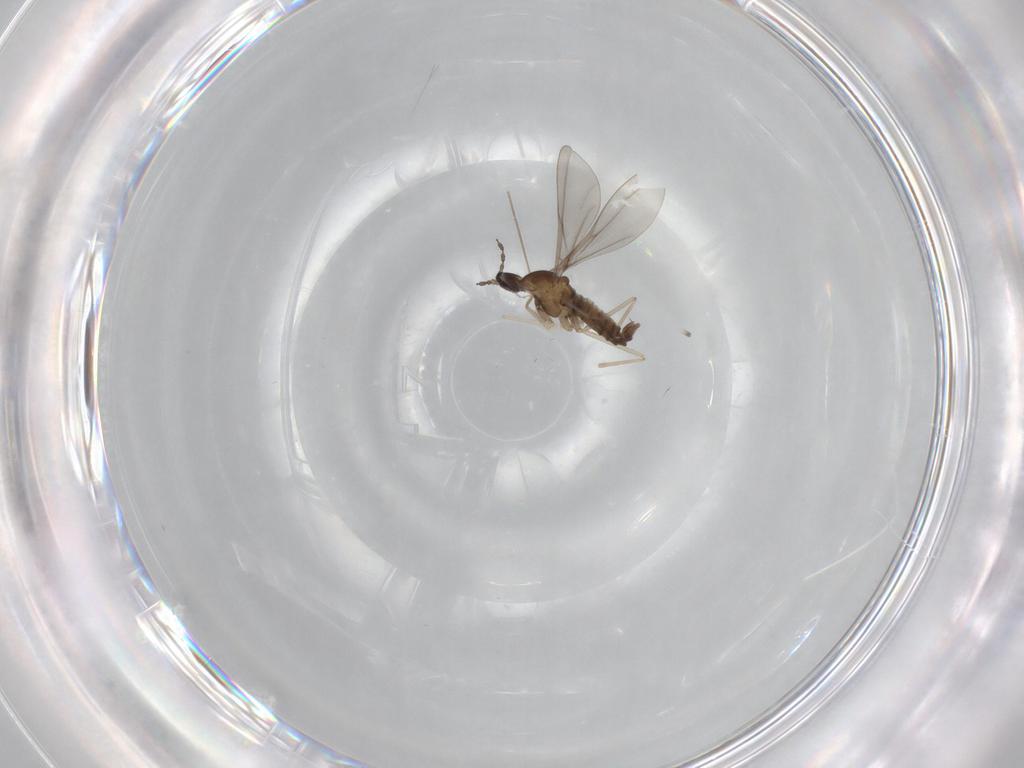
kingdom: Animalia
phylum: Arthropoda
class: Insecta
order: Diptera
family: Cecidomyiidae
